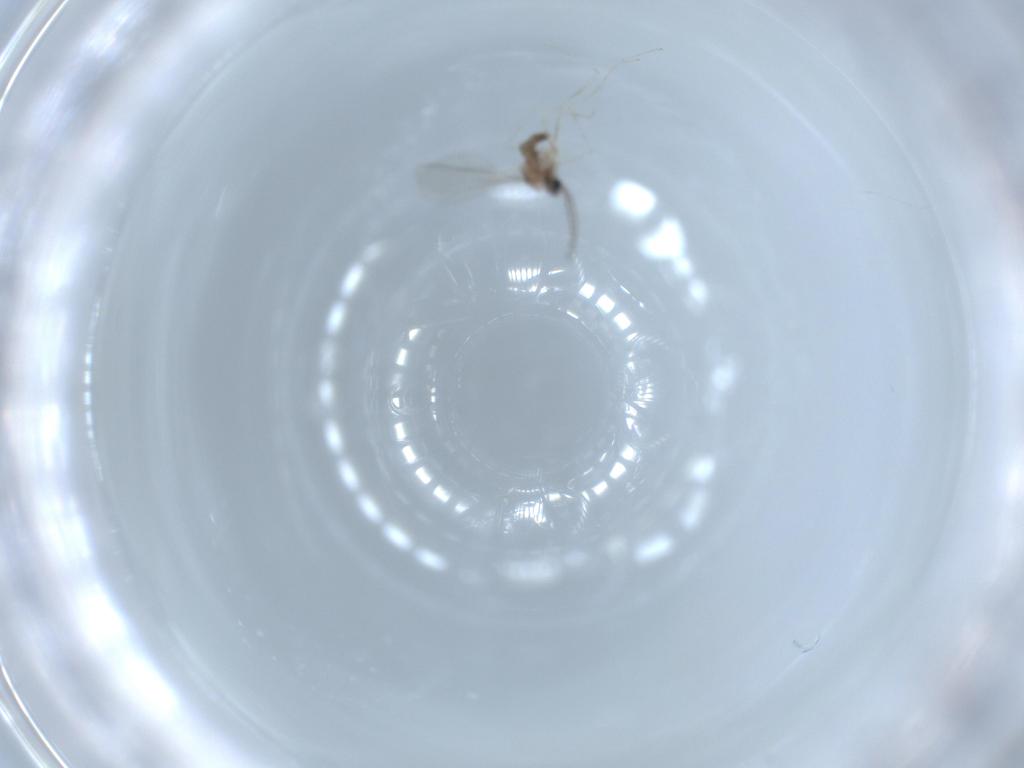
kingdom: Animalia
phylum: Arthropoda
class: Insecta
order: Diptera
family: Cecidomyiidae
